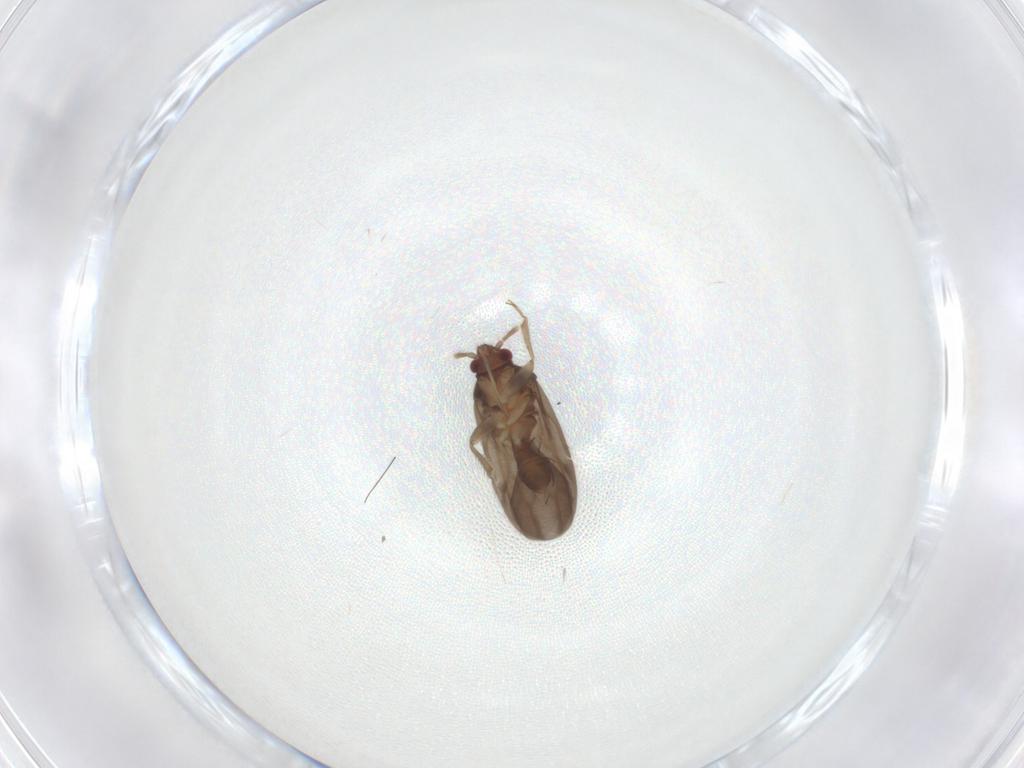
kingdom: Animalia
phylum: Arthropoda
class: Insecta
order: Hemiptera
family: Ceratocombidae
